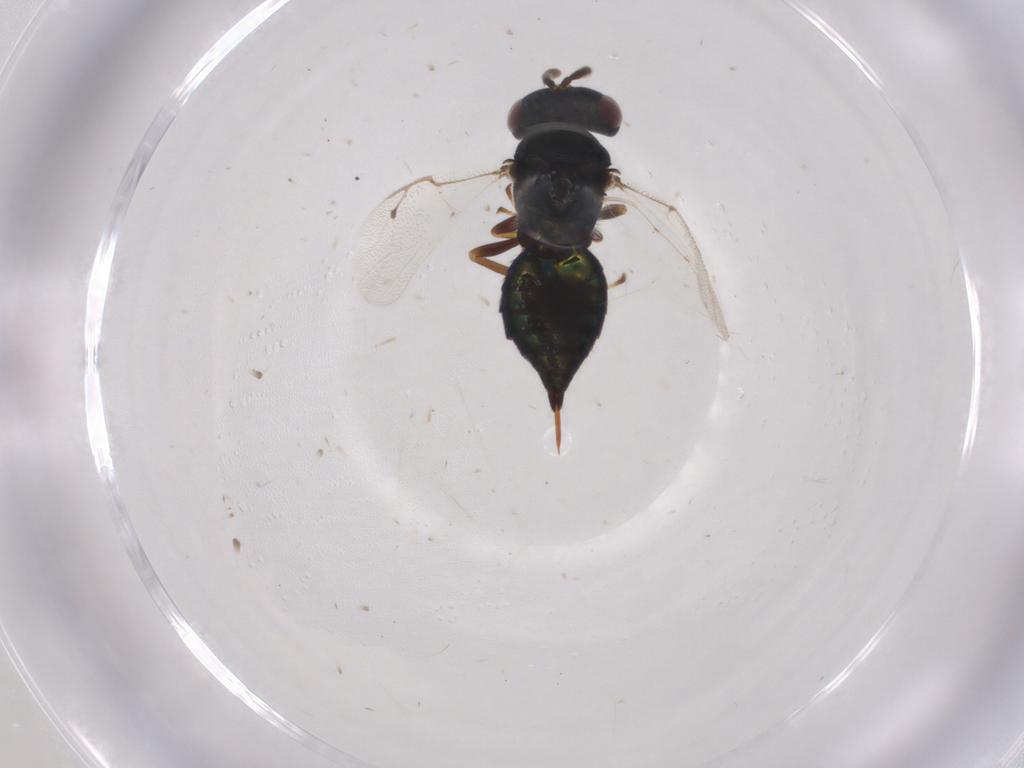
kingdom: Animalia
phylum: Arthropoda
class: Insecta
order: Hymenoptera
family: Pteromalidae
